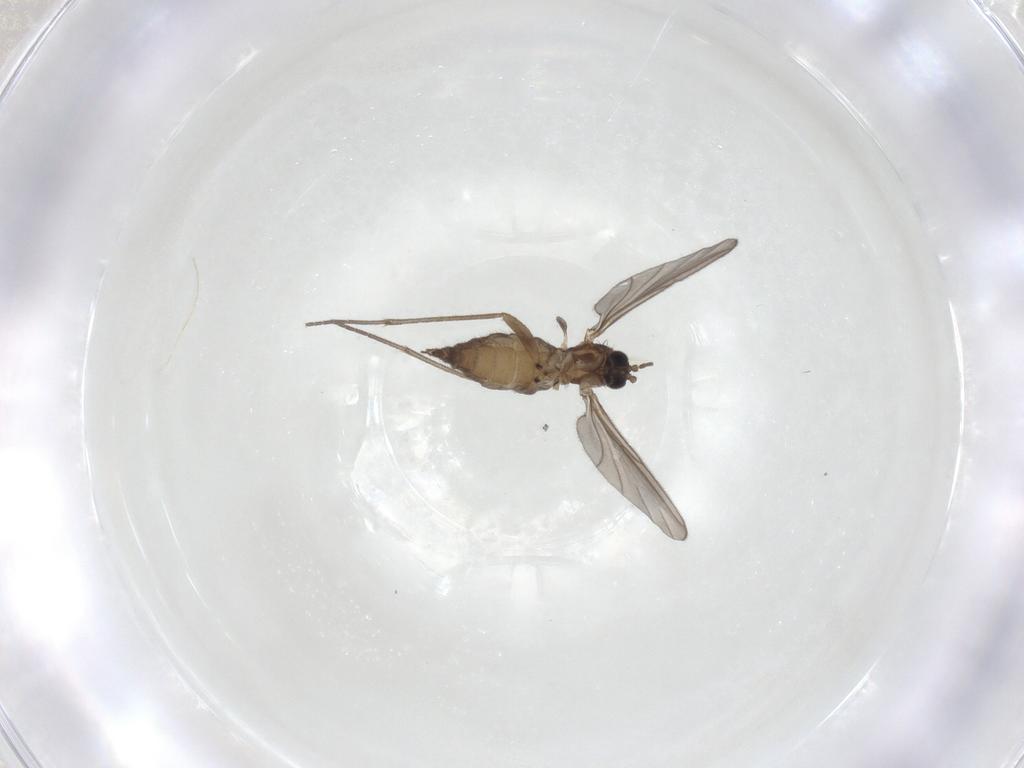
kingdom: Animalia
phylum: Arthropoda
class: Insecta
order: Diptera
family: Sciaridae
